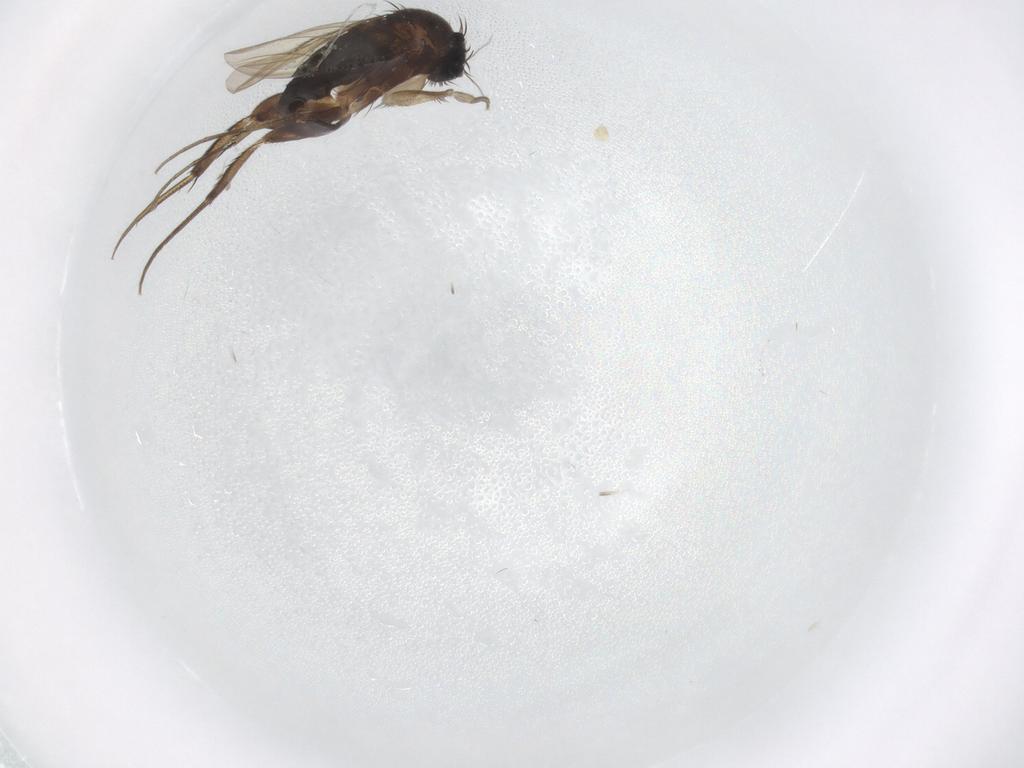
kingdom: Animalia
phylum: Arthropoda
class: Insecta
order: Diptera
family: Phoridae
